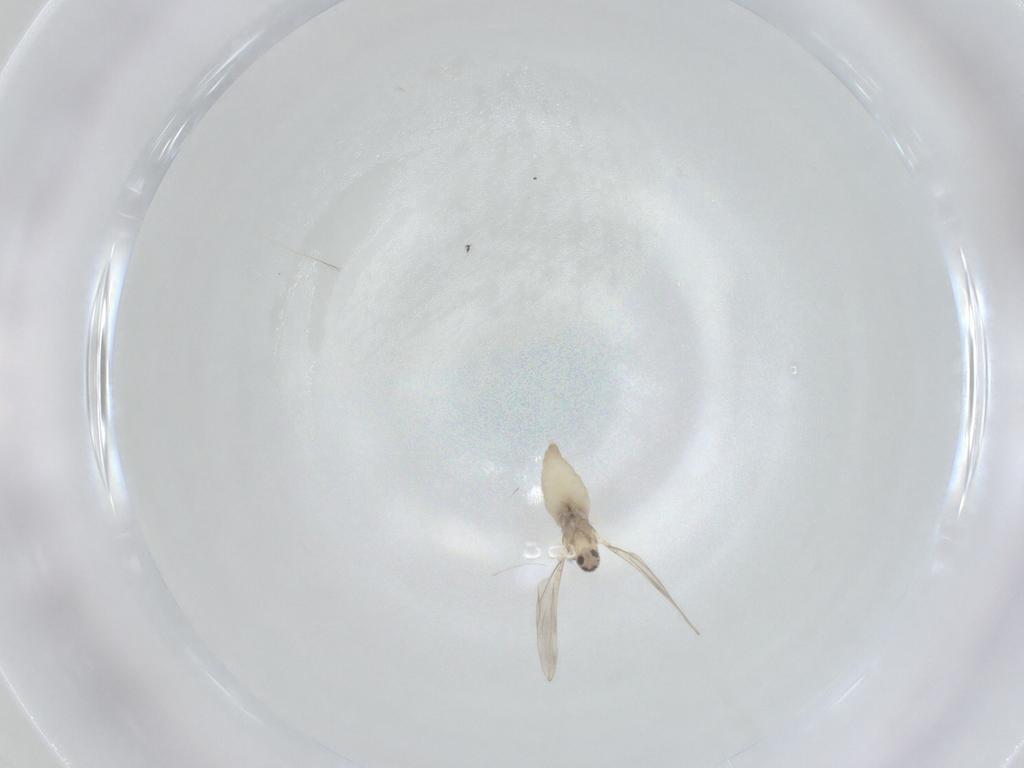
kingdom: Animalia
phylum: Arthropoda
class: Insecta
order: Diptera
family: Cecidomyiidae
